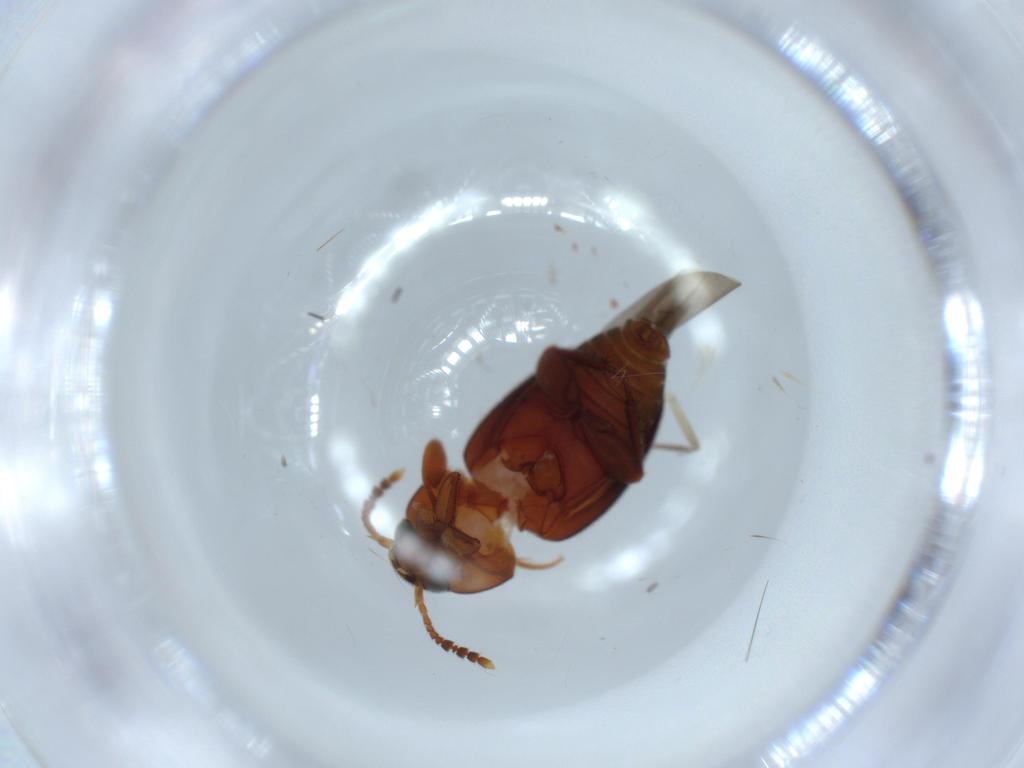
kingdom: Animalia
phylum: Arthropoda
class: Insecta
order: Coleoptera
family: Leiodidae
